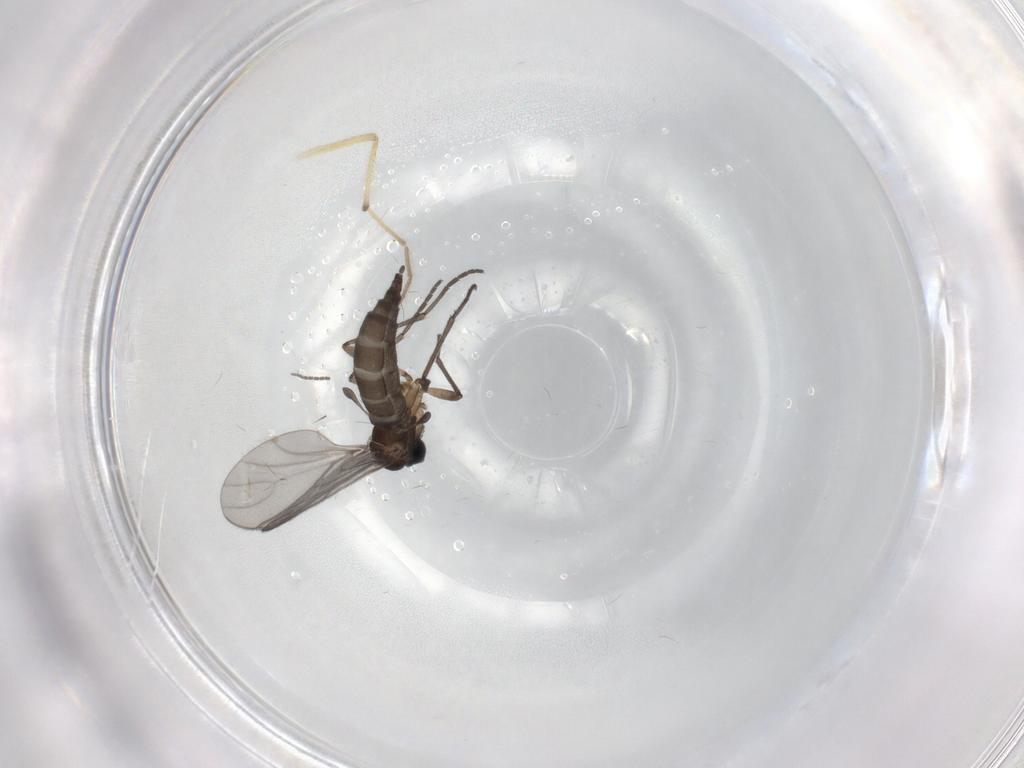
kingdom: Animalia
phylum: Arthropoda
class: Insecta
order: Diptera
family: Chironomidae
